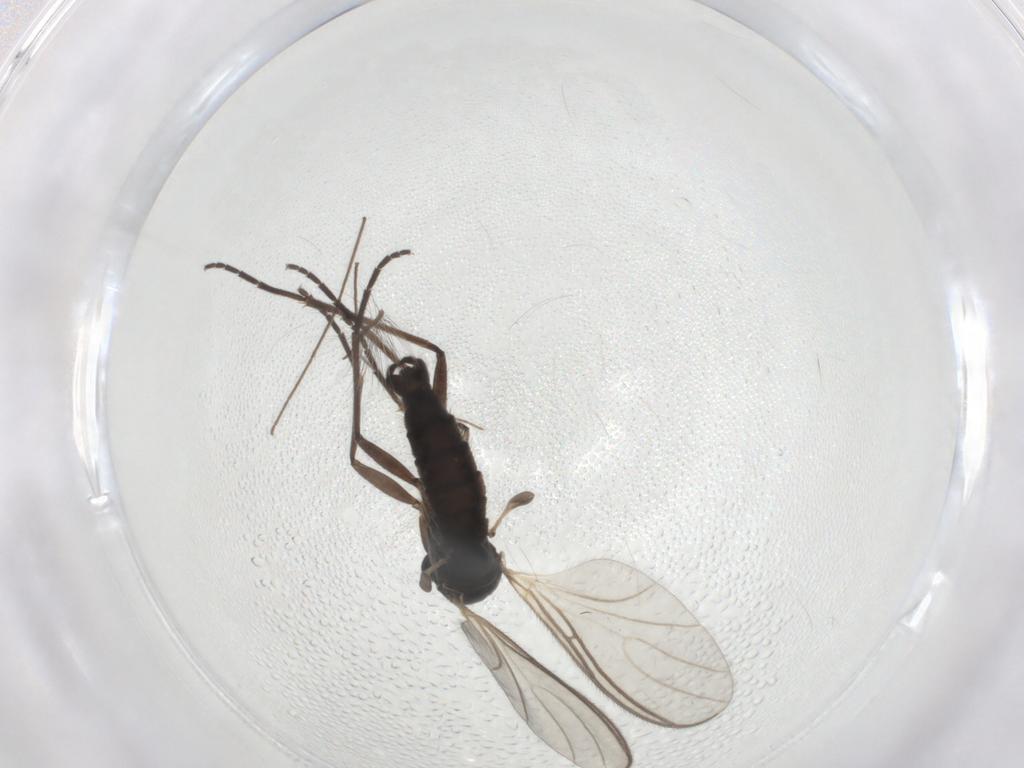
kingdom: Animalia
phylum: Arthropoda
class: Insecta
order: Diptera
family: Sciaridae
